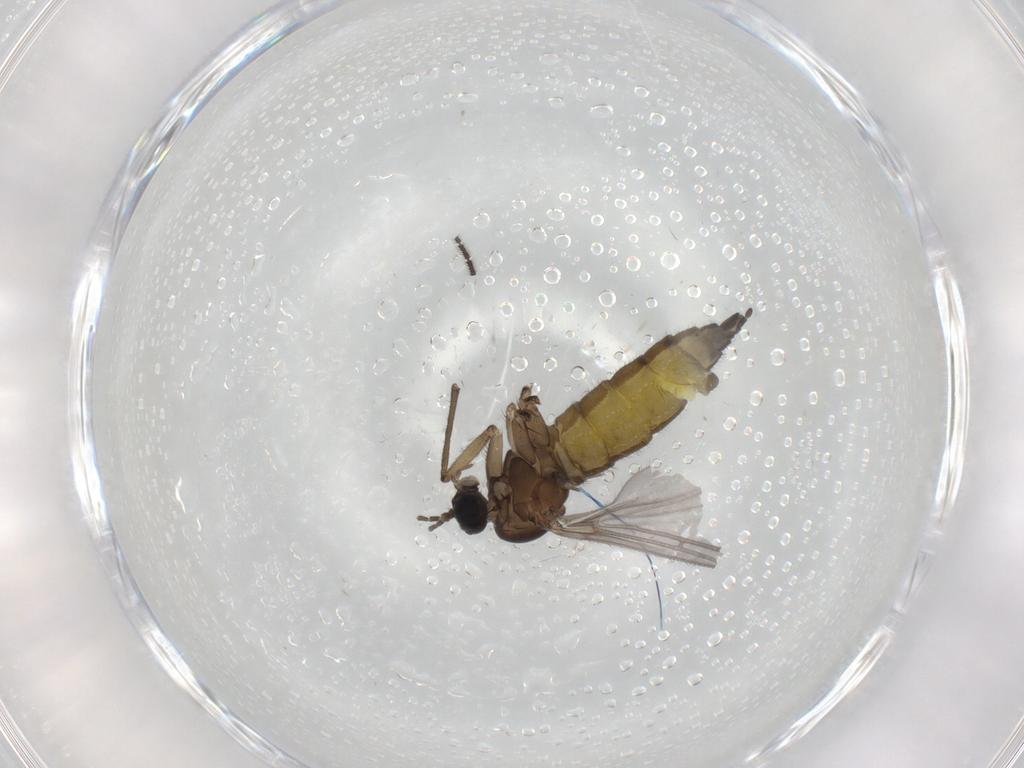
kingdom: Animalia
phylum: Arthropoda
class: Insecta
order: Diptera
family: Sciaridae
